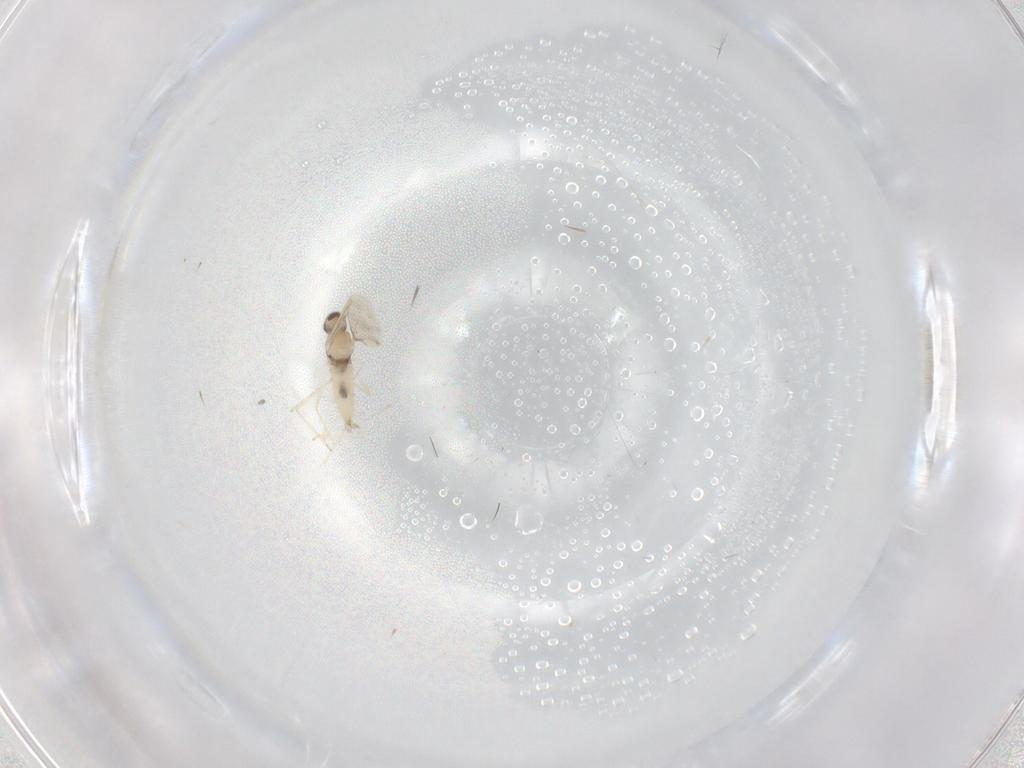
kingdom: Animalia
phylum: Arthropoda
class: Insecta
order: Diptera
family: Cecidomyiidae
